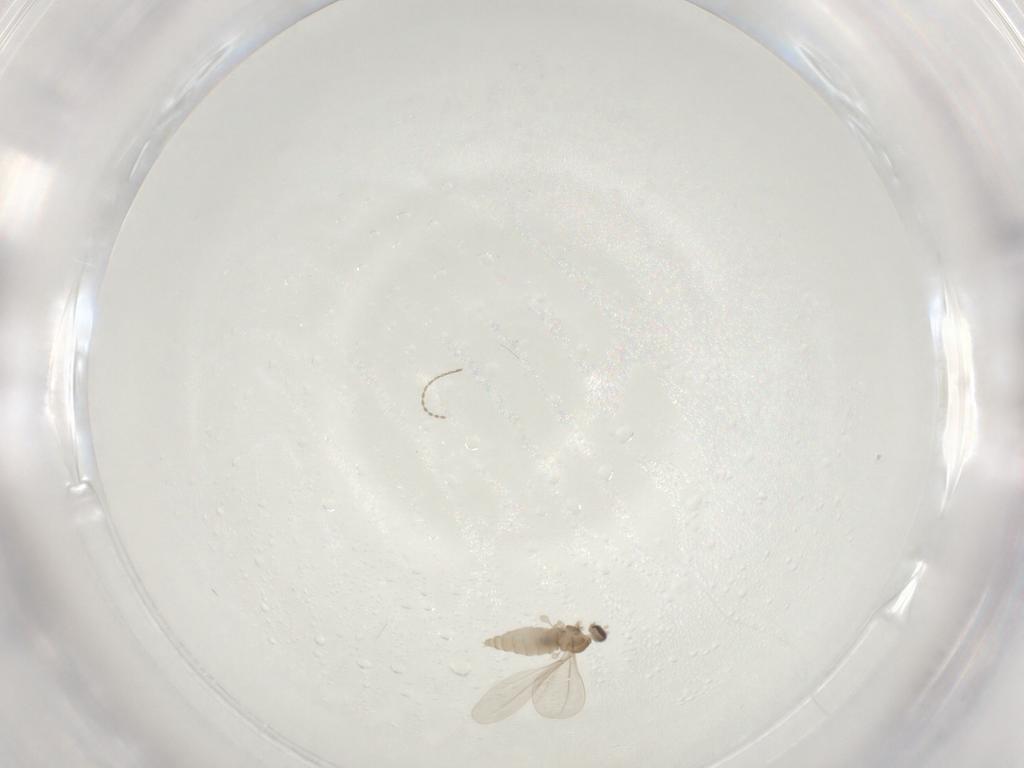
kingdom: Animalia
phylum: Arthropoda
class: Insecta
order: Diptera
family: Cecidomyiidae
